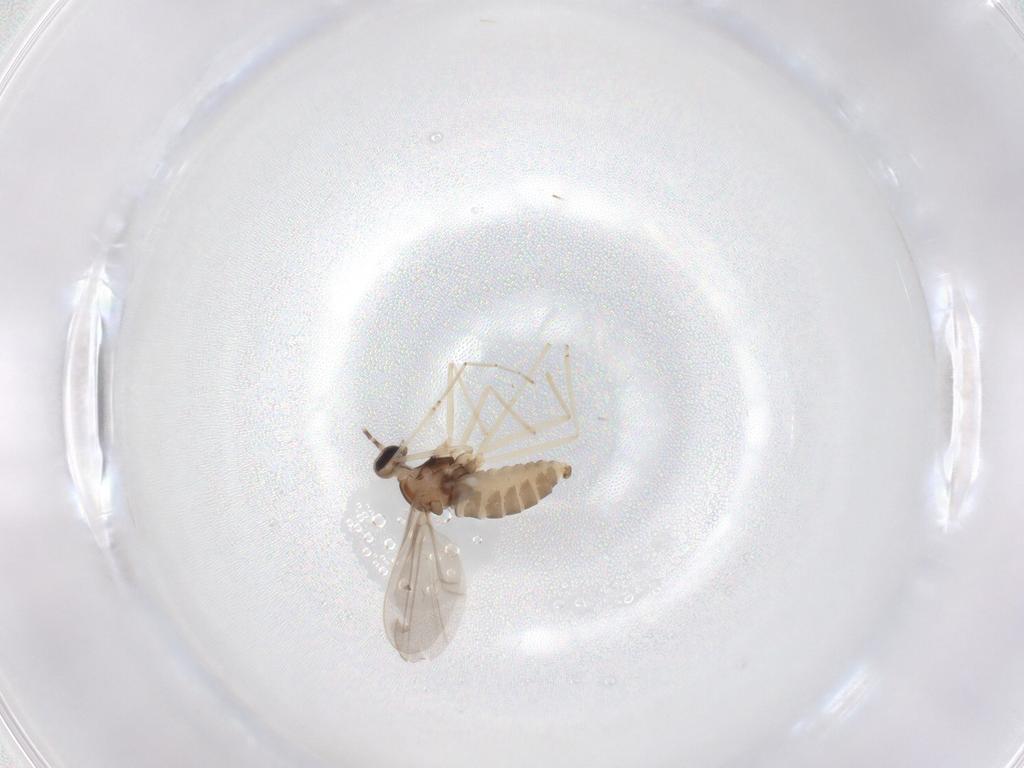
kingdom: Animalia
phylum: Arthropoda
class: Insecta
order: Diptera
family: Cecidomyiidae
